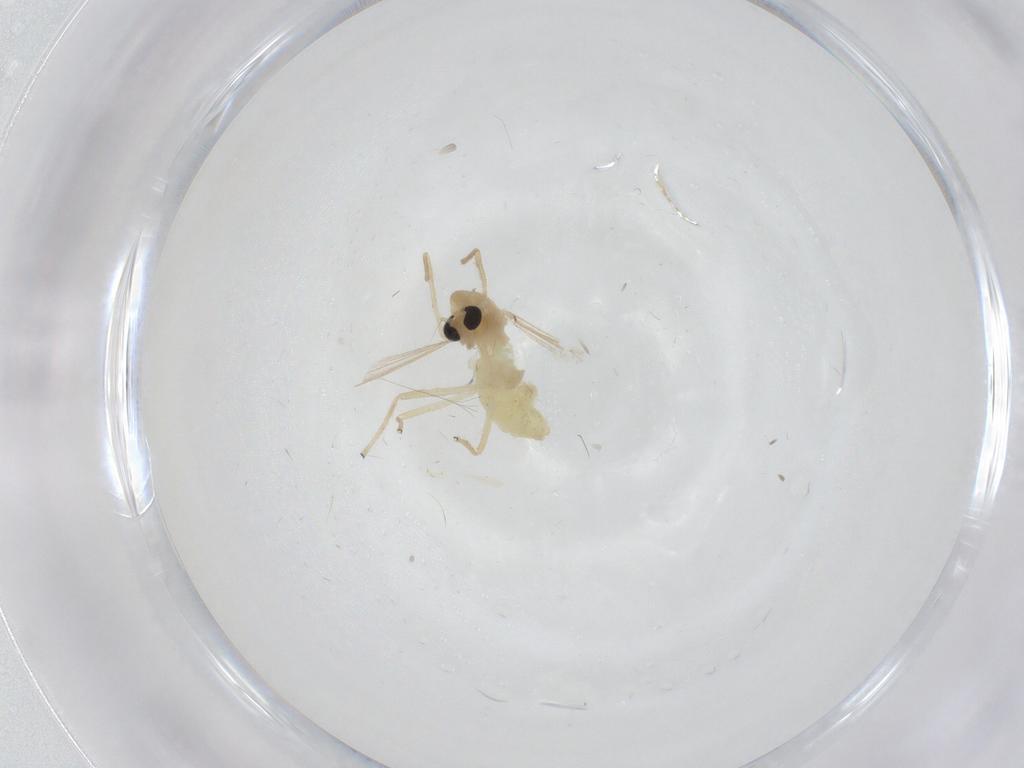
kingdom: Animalia
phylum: Arthropoda
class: Insecta
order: Diptera
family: Chironomidae
